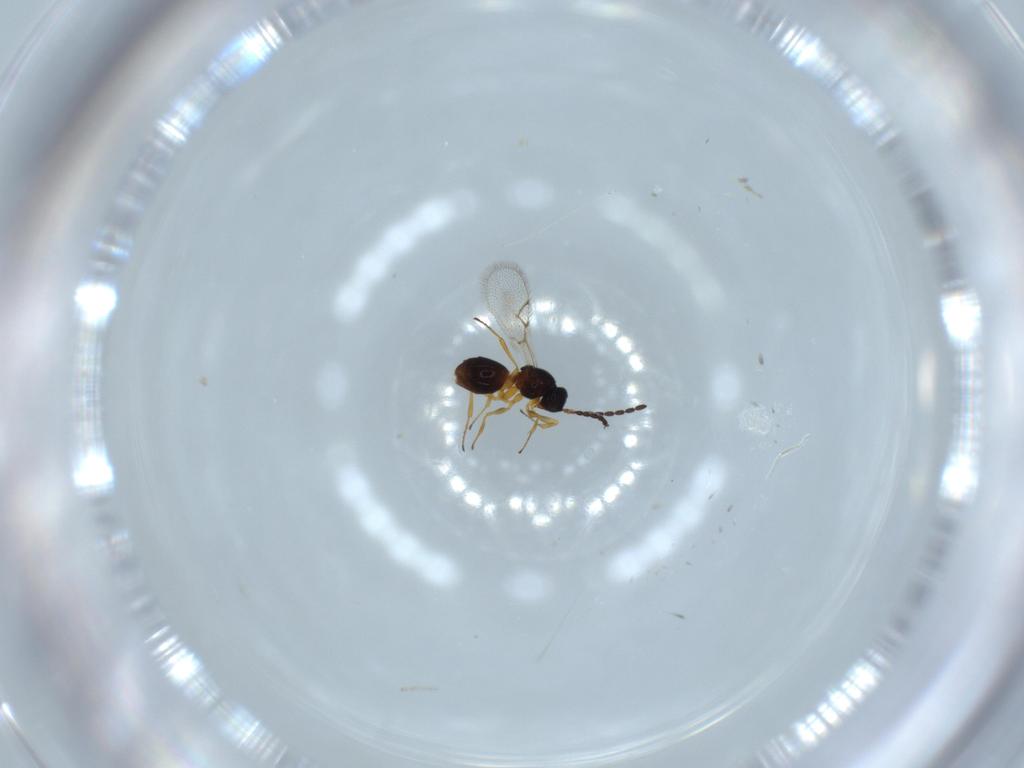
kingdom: Animalia
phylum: Arthropoda
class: Insecta
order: Hymenoptera
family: Figitidae
